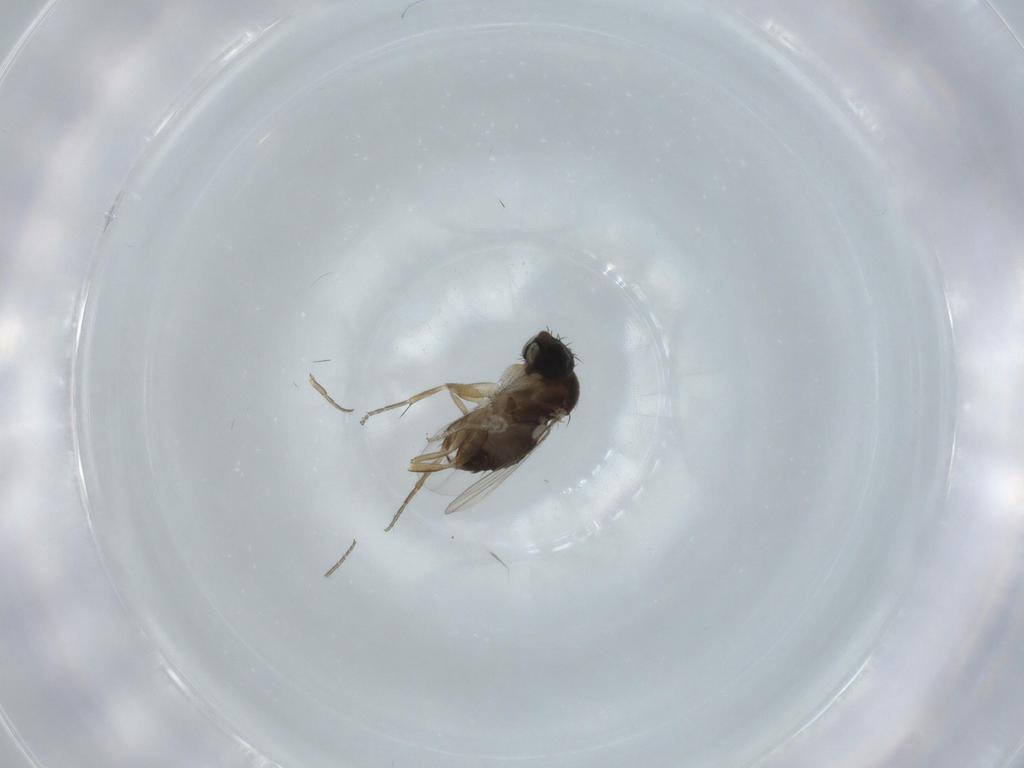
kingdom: Animalia
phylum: Arthropoda
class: Insecta
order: Diptera
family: Phoridae
